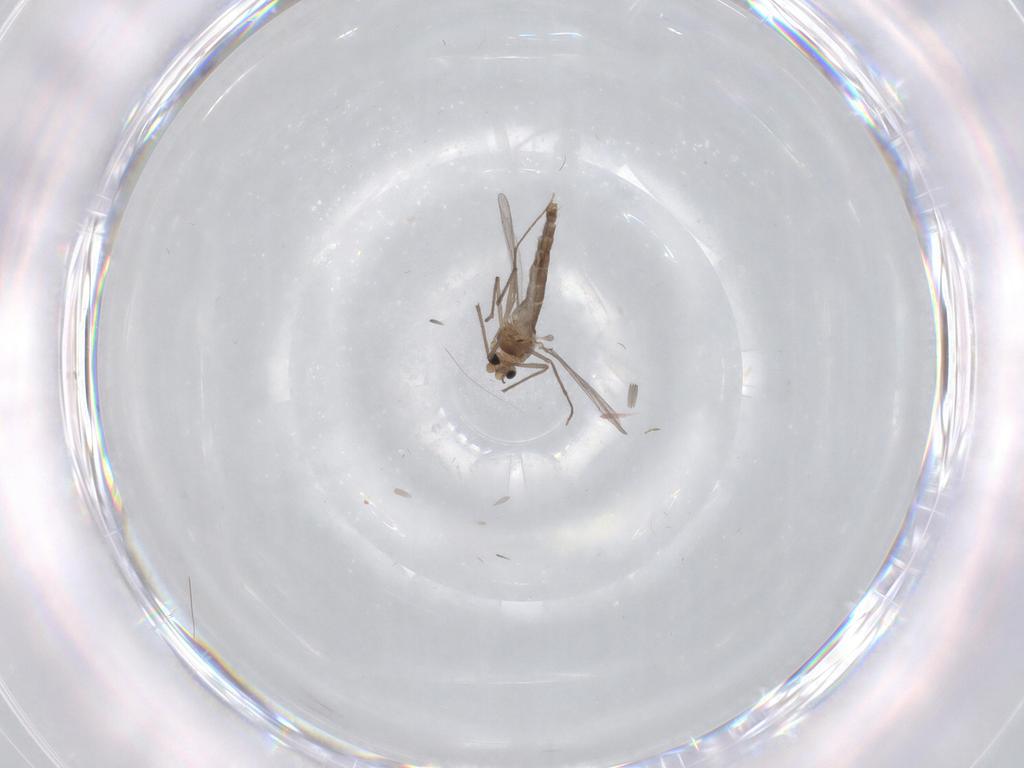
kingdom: Animalia
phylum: Arthropoda
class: Insecta
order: Diptera
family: Chironomidae
